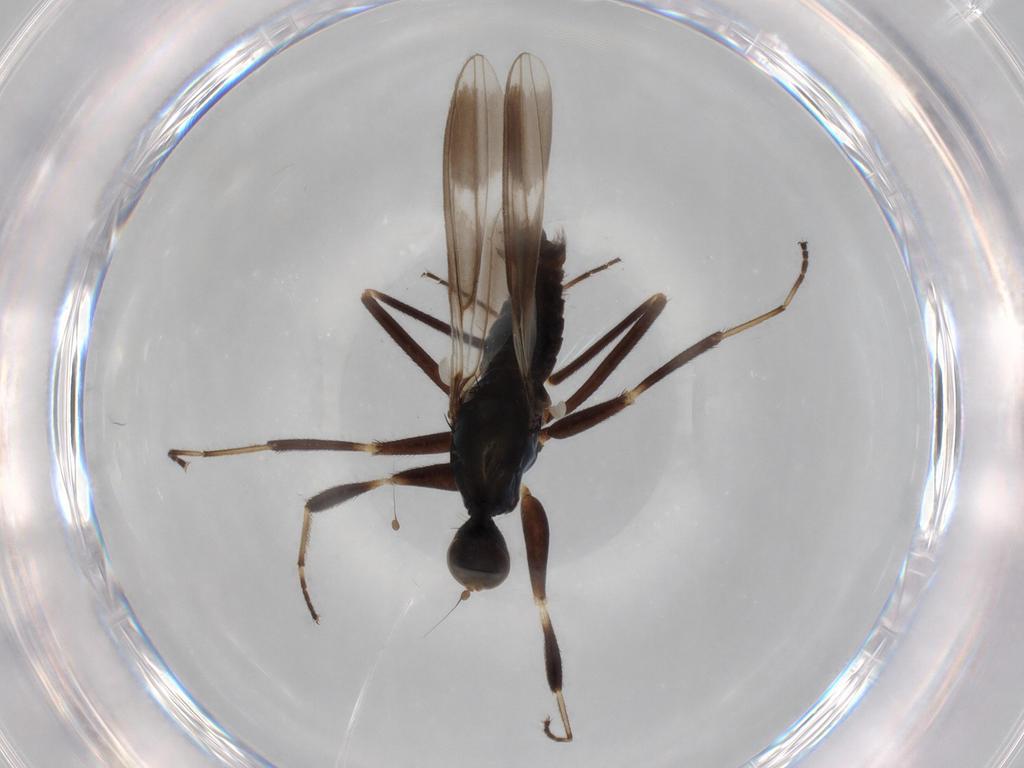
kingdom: Animalia
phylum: Arthropoda
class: Insecta
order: Diptera
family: Hybotidae
